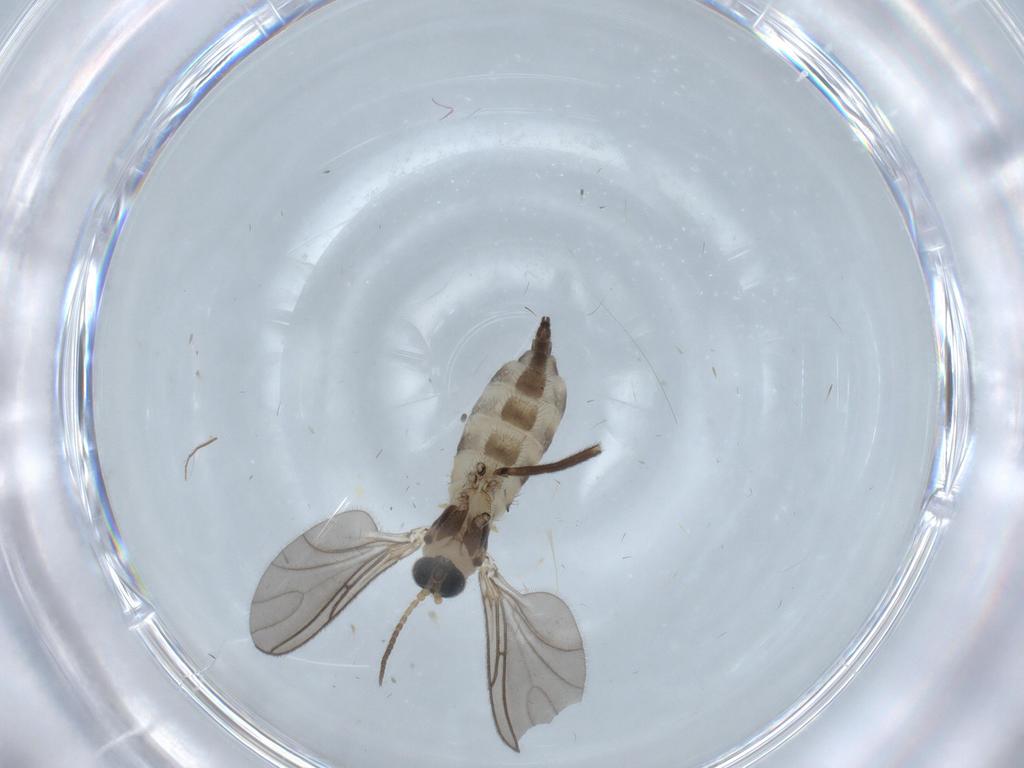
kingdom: Animalia
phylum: Arthropoda
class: Insecta
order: Diptera
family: Sciaridae
